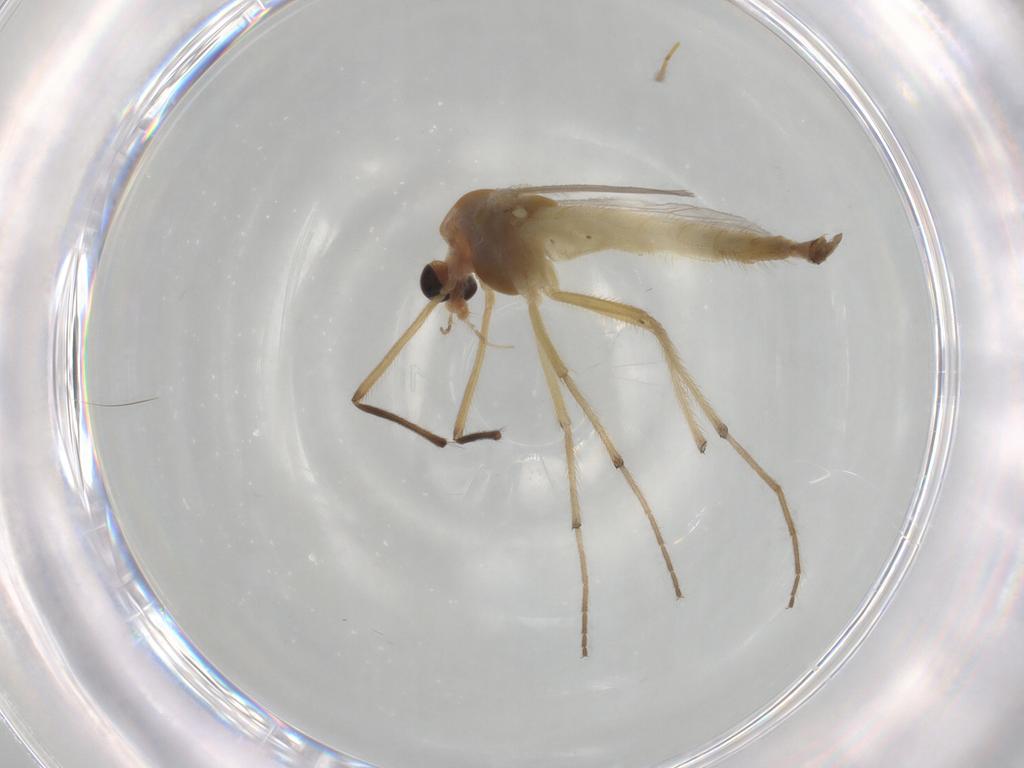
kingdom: Animalia
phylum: Arthropoda
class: Insecta
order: Diptera
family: Chironomidae
